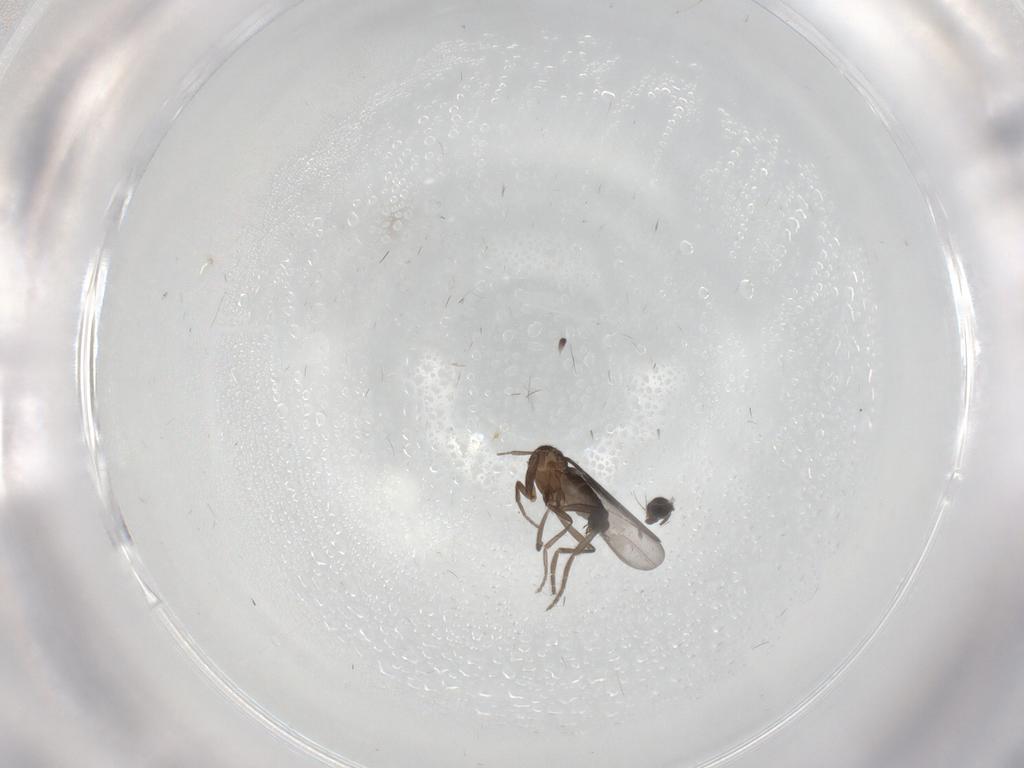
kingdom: Animalia
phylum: Arthropoda
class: Insecta
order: Diptera
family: Phoridae
